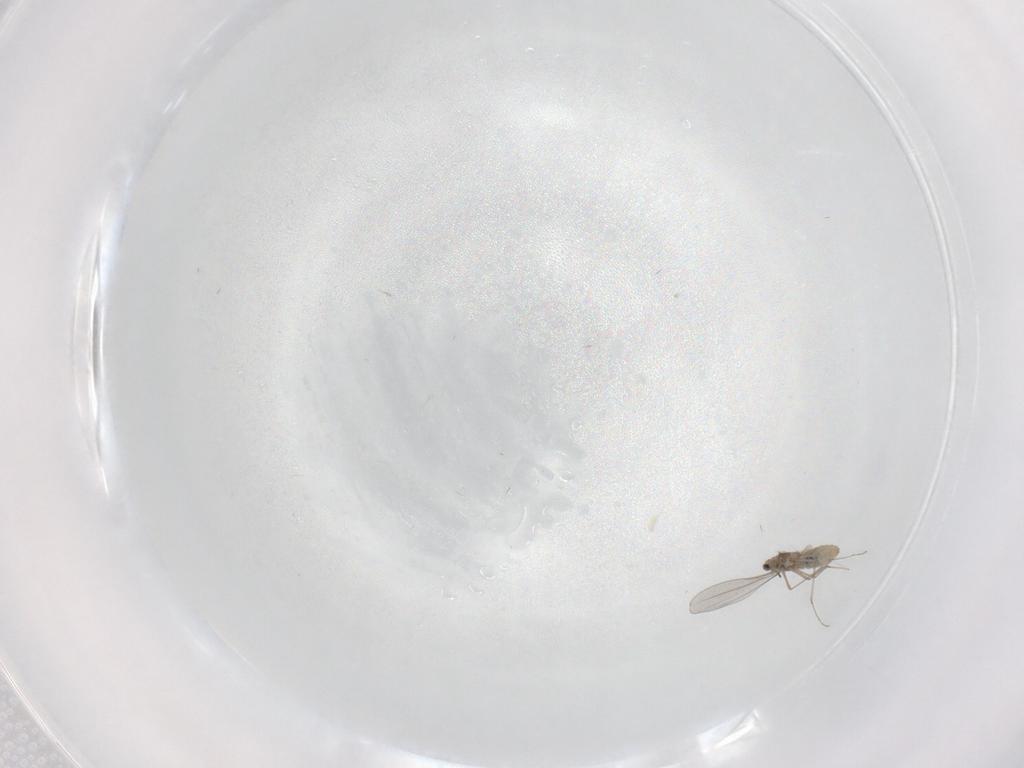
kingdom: Animalia
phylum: Arthropoda
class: Insecta
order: Diptera
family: Cecidomyiidae
